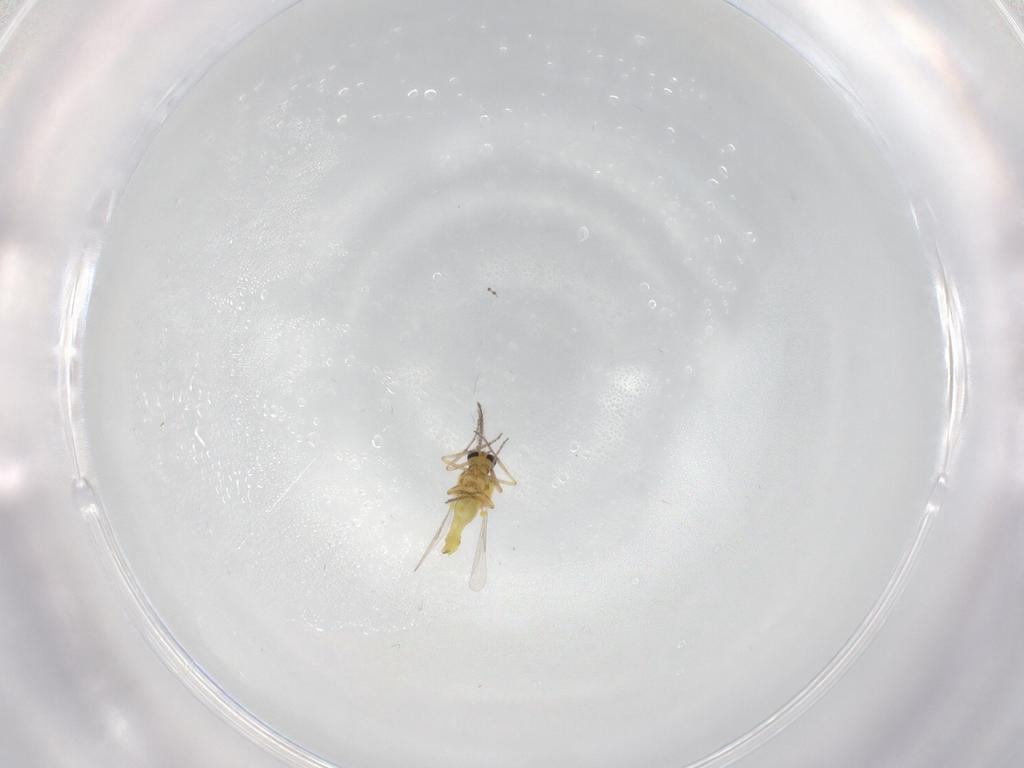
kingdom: Animalia
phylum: Arthropoda
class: Insecta
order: Diptera
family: Ceratopogonidae
